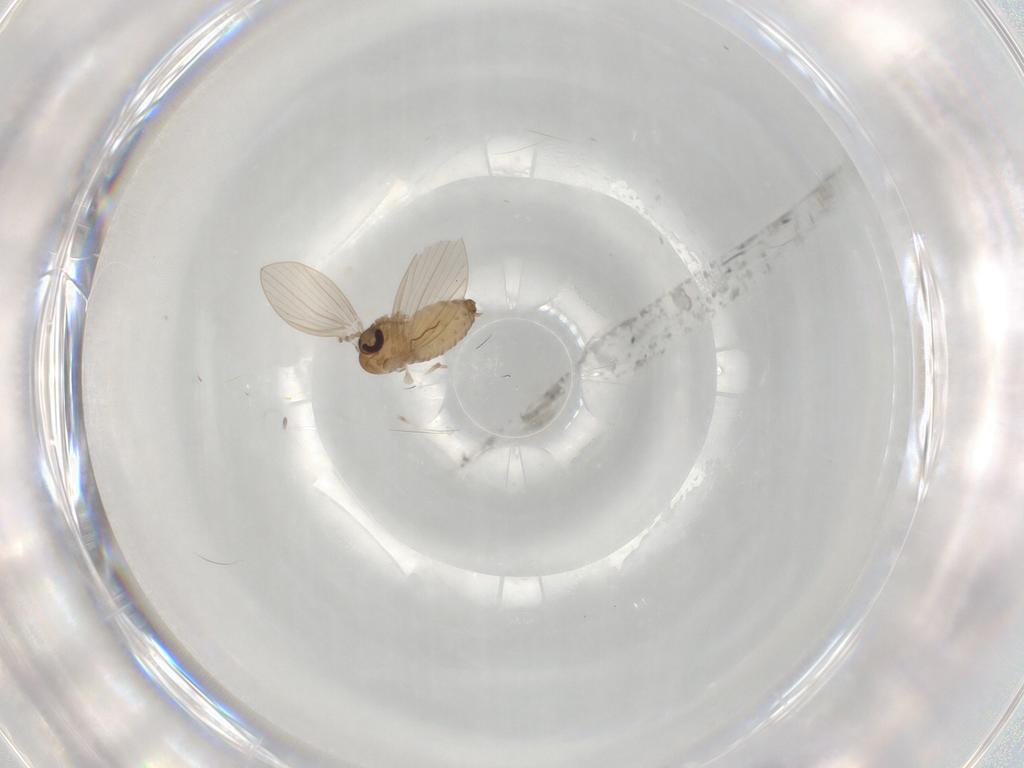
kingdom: Animalia
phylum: Arthropoda
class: Insecta
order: Diptera
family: Psychodidae
